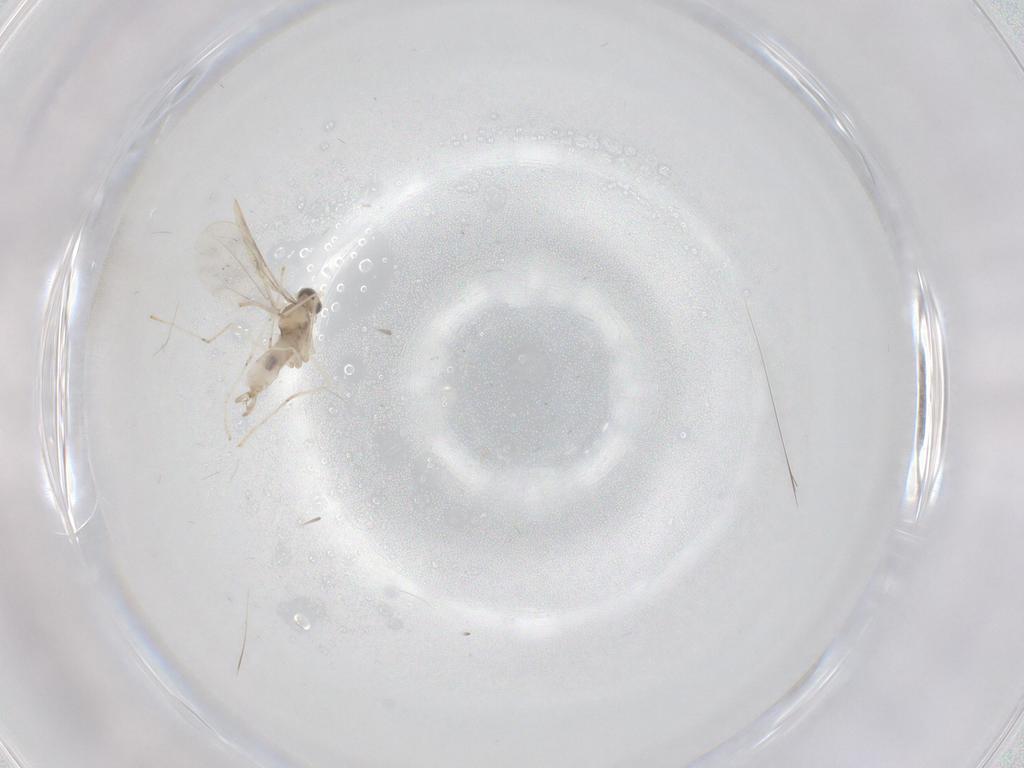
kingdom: Animalia
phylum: Arthropoda
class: Insecta
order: Diptera
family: Cecidomyiidae
